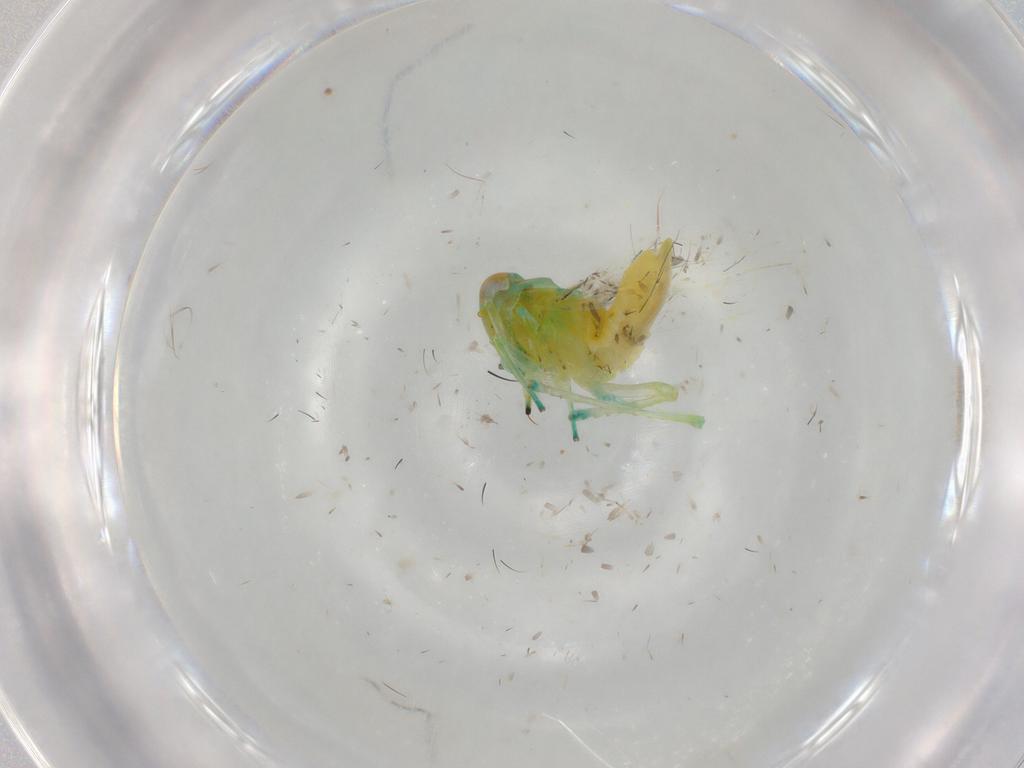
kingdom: Animalia
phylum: Arthropoda
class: Insecta
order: Hemiptera
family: Cicadellidae
